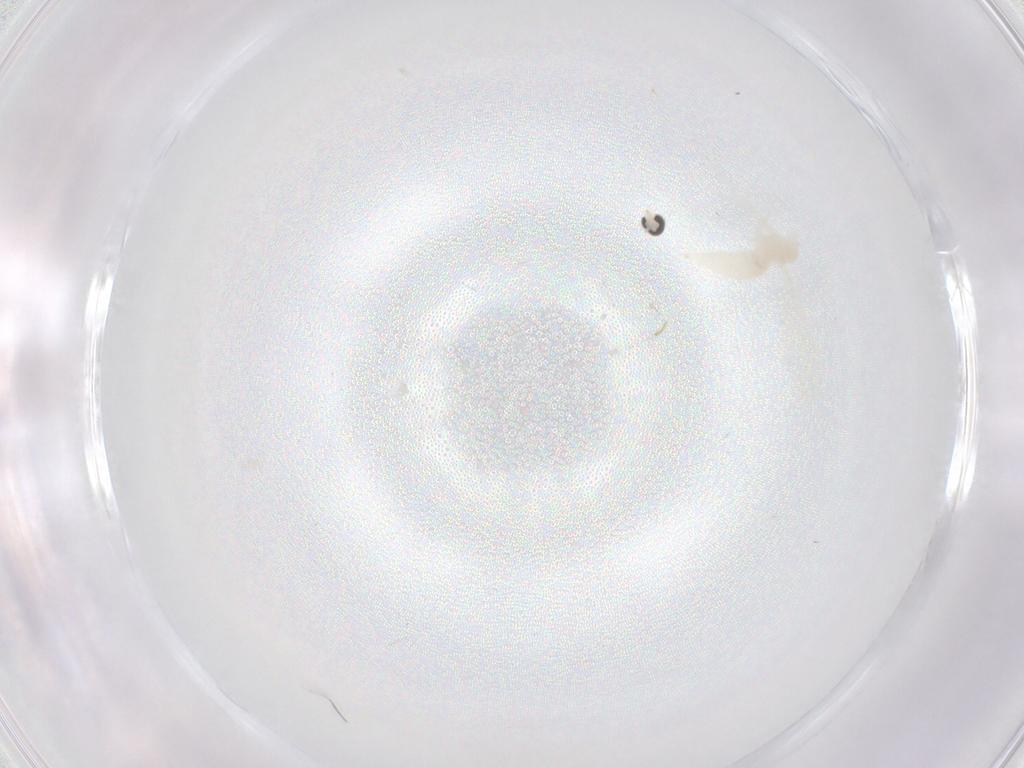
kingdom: Animalia
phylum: Arthropoda
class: Insecta
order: Diptera
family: Cecidomyiidae
